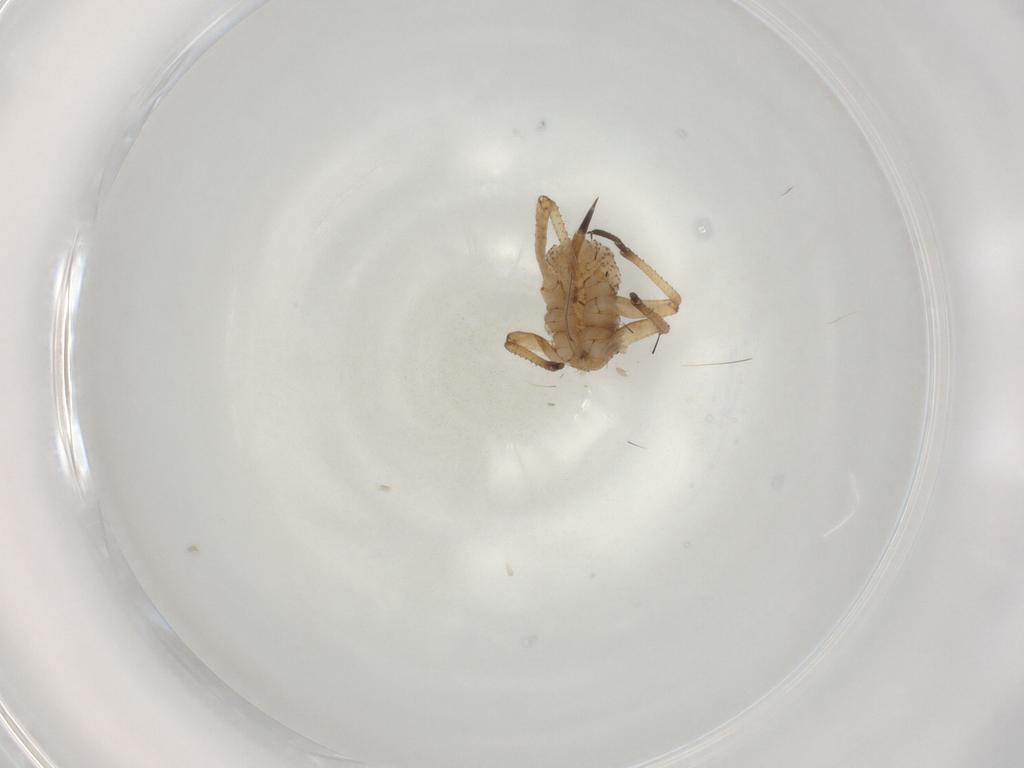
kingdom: Animalia
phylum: Arthropoda
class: Insecta
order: Hemiptera
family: Aphididae
